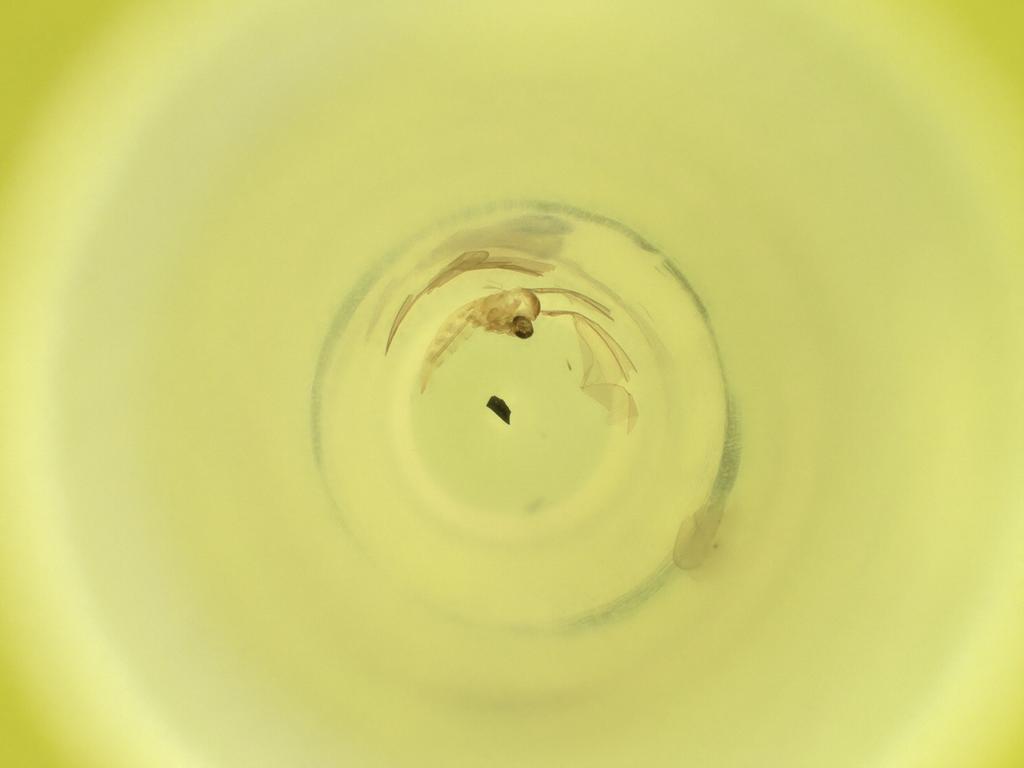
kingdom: Animalia
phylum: Arthropoda
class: Insecta
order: Diptera
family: Cecidomyiidae
